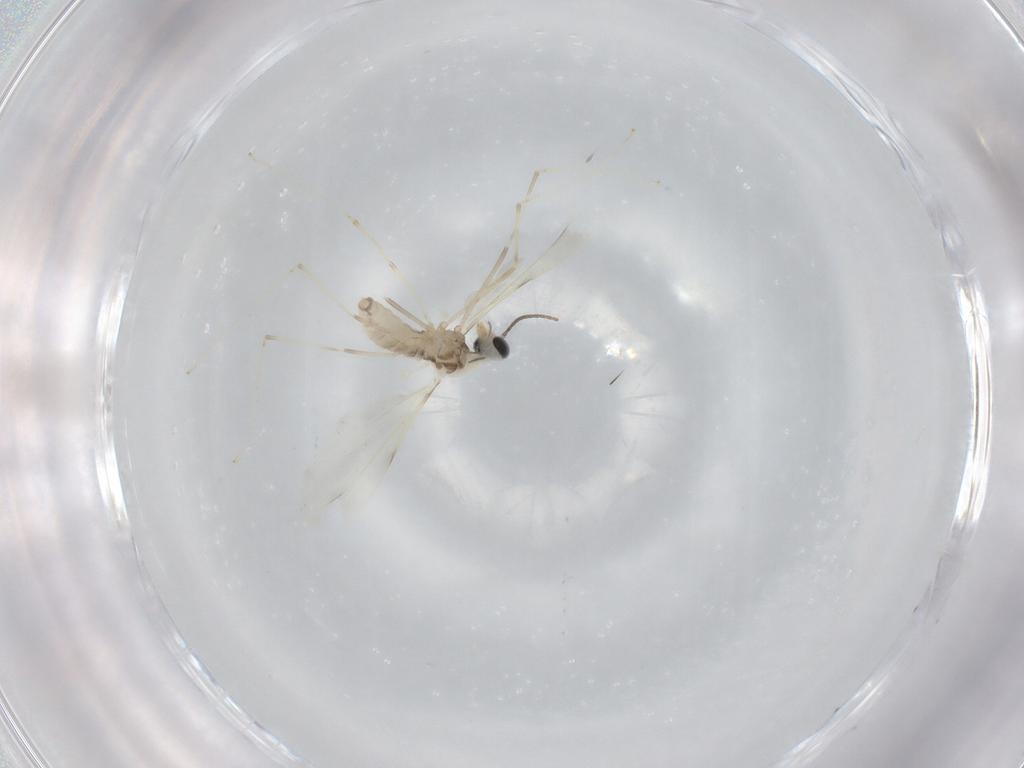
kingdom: Animalia
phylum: Arthropoda
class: Insecta
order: Diptera
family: Cecidomyiidae
